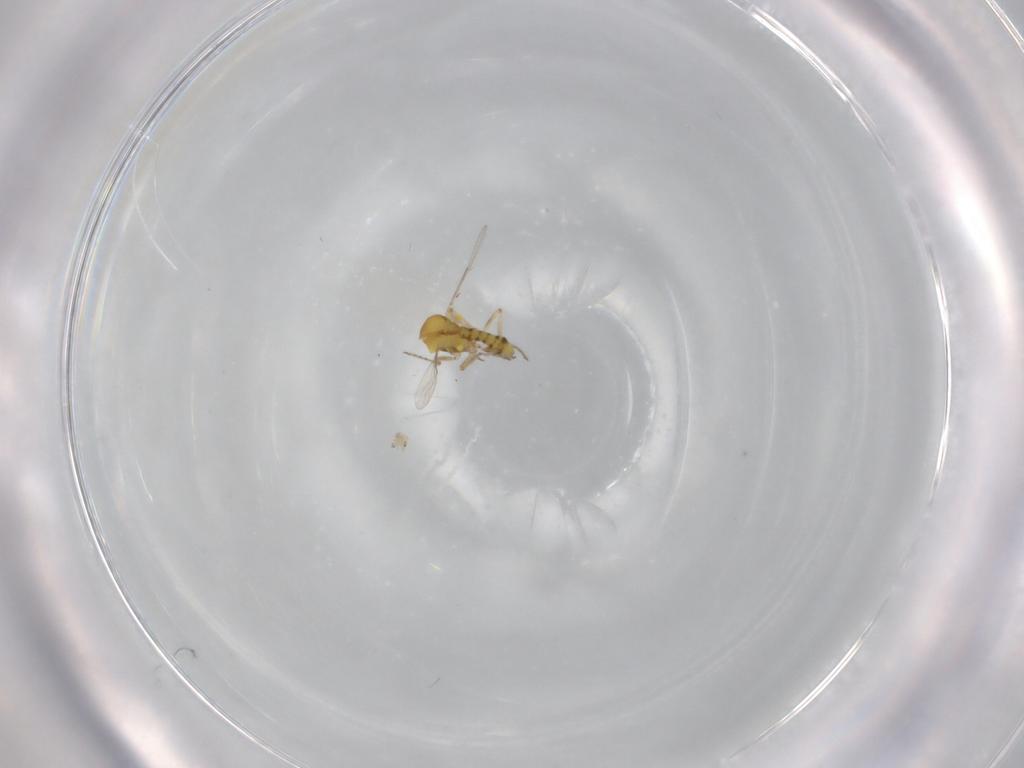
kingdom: Animalia
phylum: Arthropoda
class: Insecta
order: Diptera
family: Ceratopogonidae
